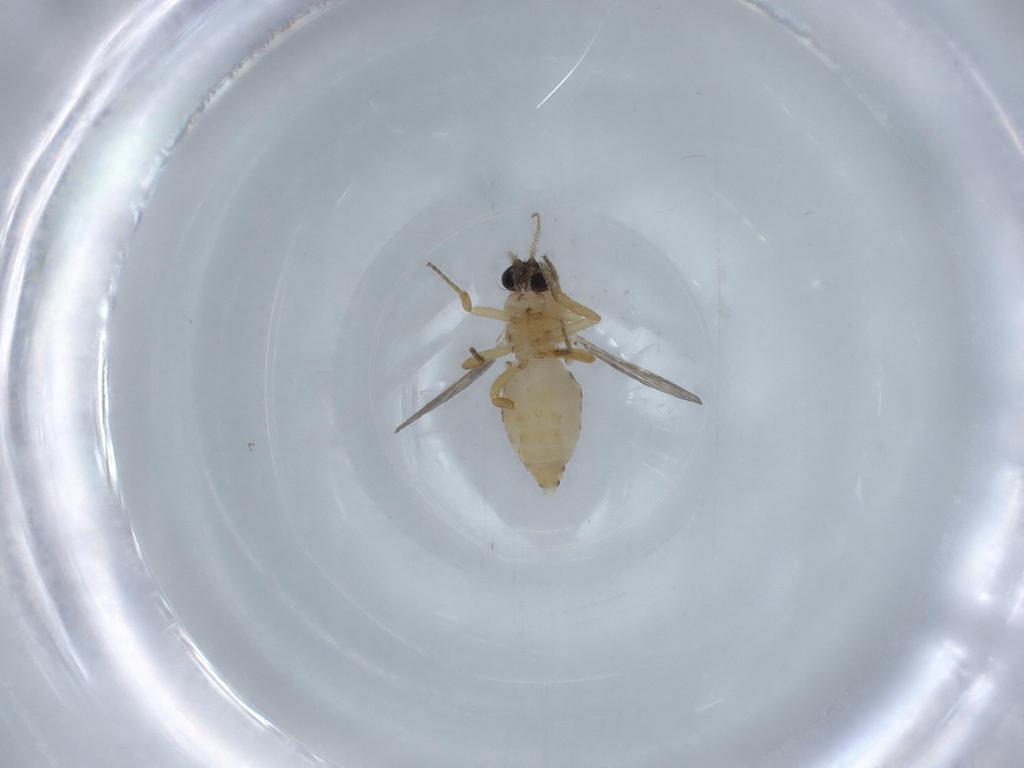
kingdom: Animalia
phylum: Arthropoda
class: Insecta
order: Diptera
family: Ceratopogonidae
